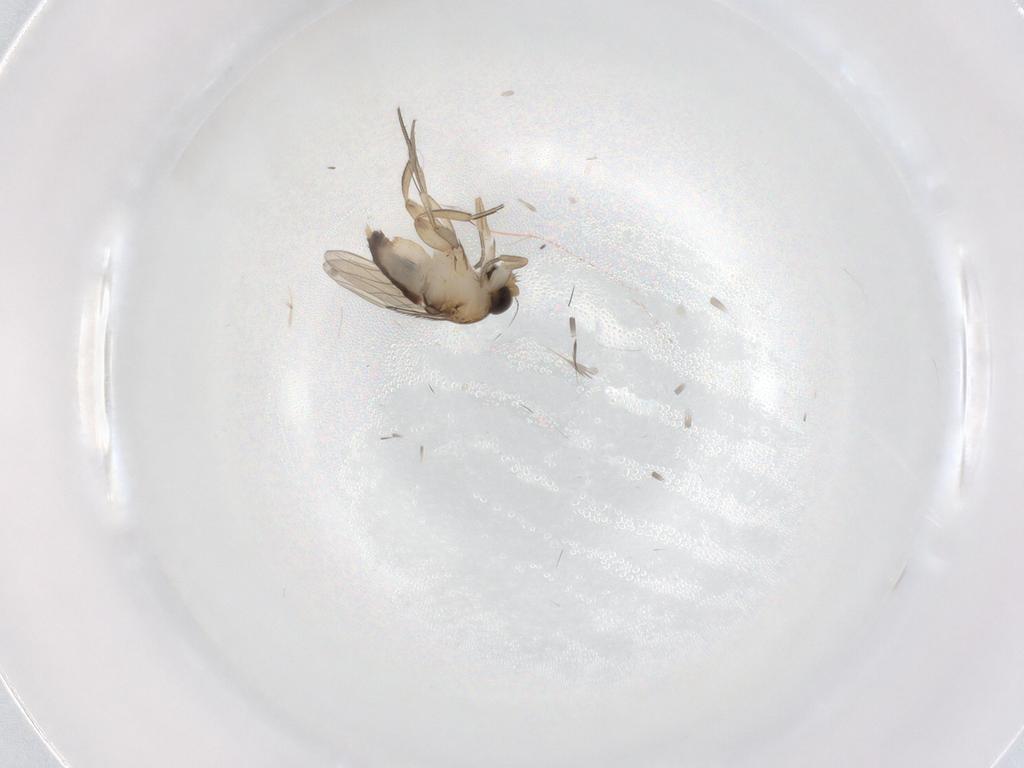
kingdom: Animalia
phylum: Arthropoda
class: Insecta
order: Diptera
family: Phoridae
